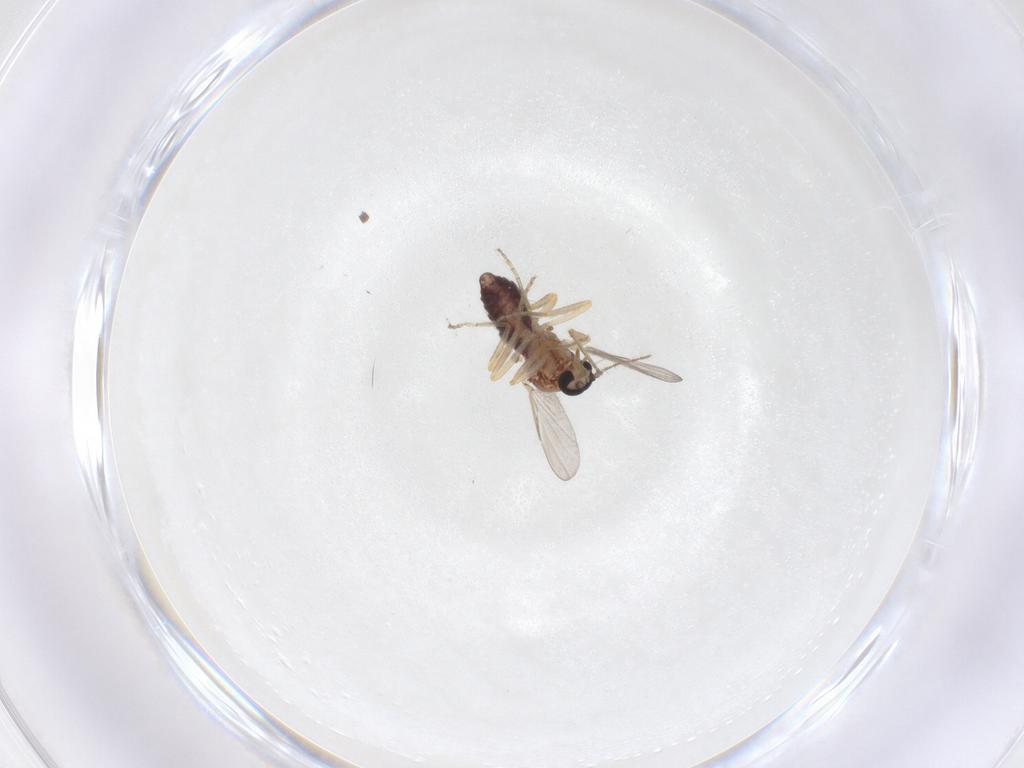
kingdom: Animalia
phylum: Arthropoda
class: Insecta
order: Diptera
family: Ceratopogonidae
